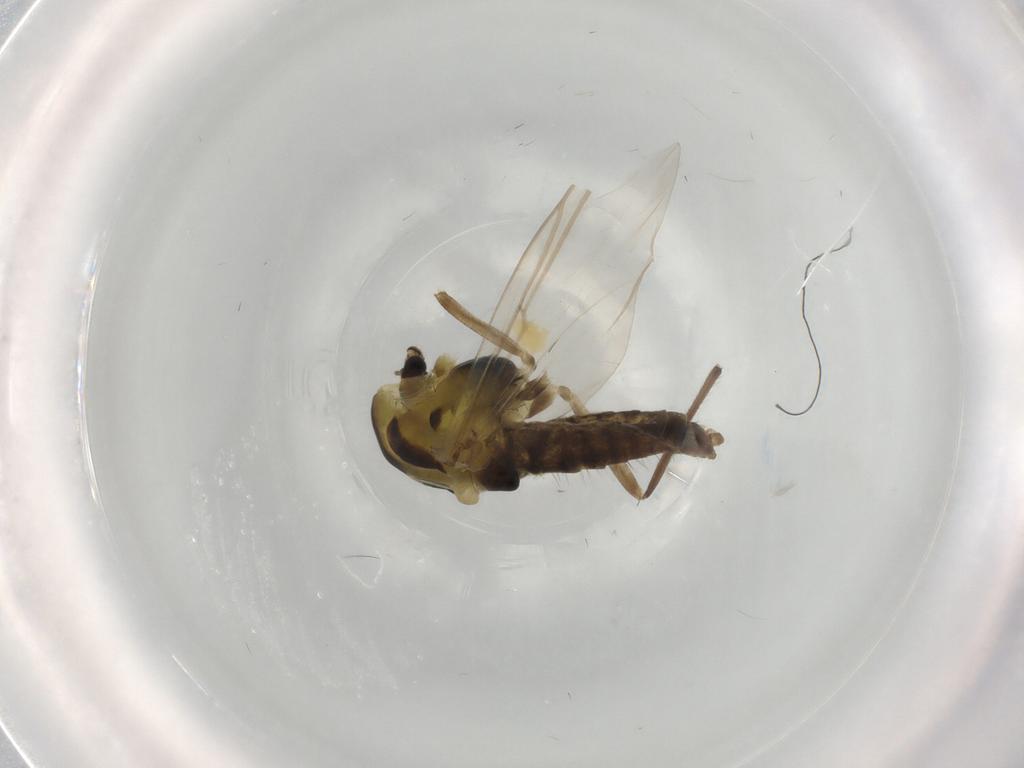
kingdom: Animalia
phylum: Arthropoda
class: Insecta
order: Diptera
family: Chironomidae
